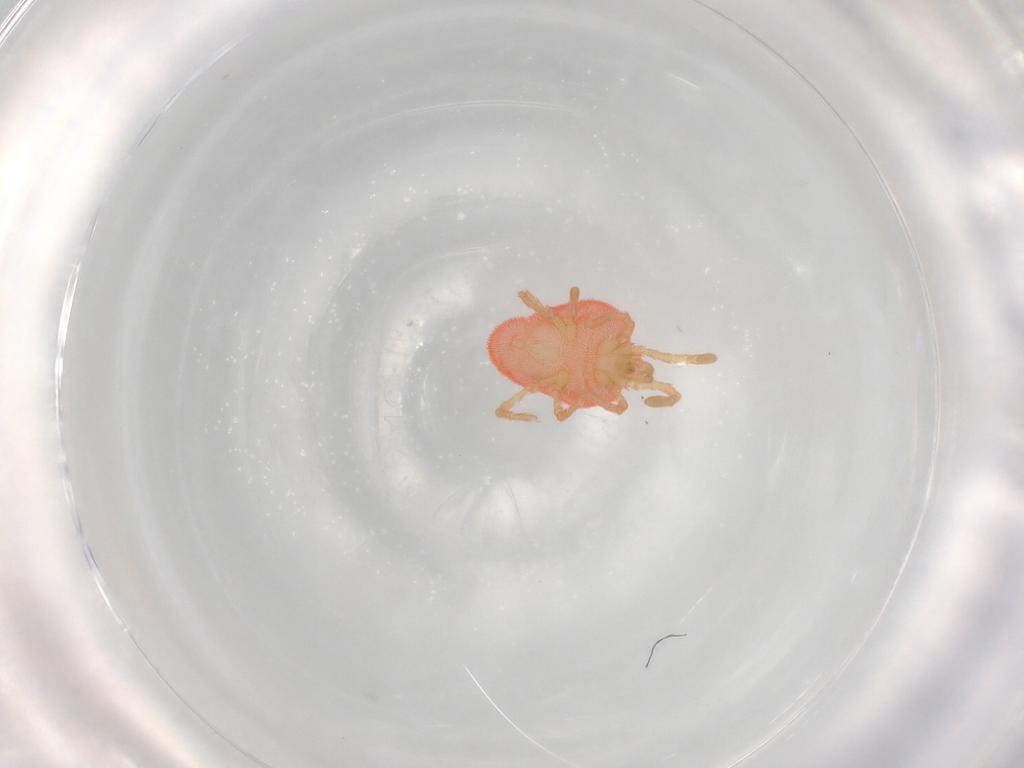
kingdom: Animalia
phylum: Arthropoda
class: Arachnida
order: Trombidiformes
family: Trombidiidae
